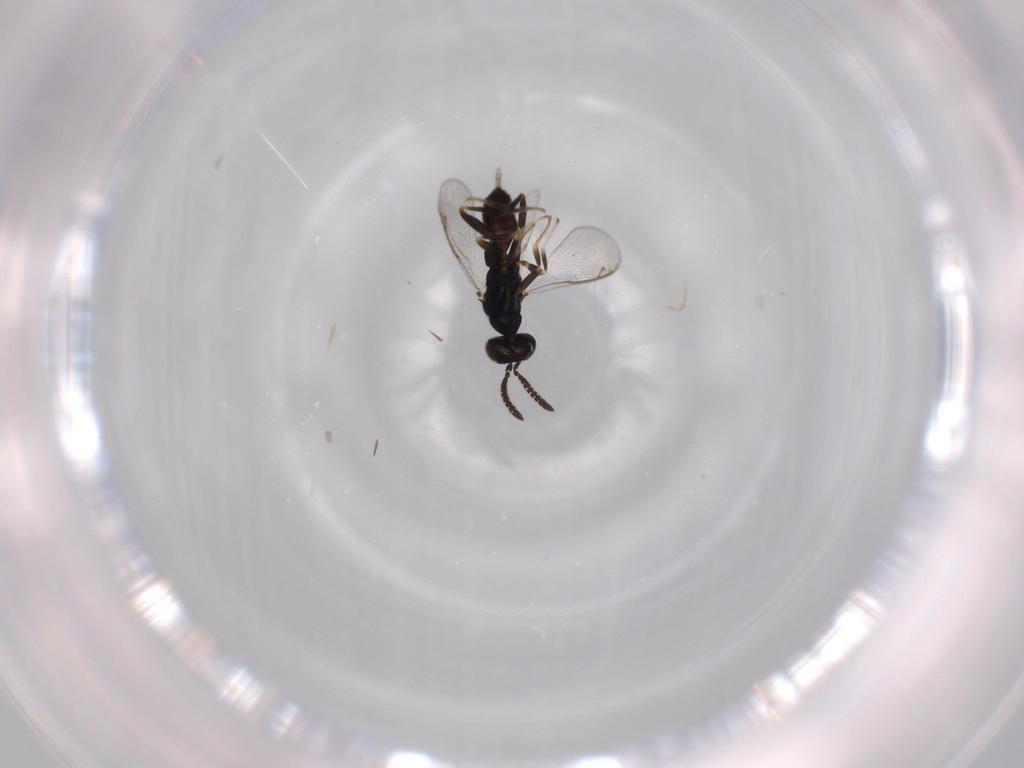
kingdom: Animalia
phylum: Arthropoda
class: Insecta
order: Hymenoptera
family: Cleonyminae
